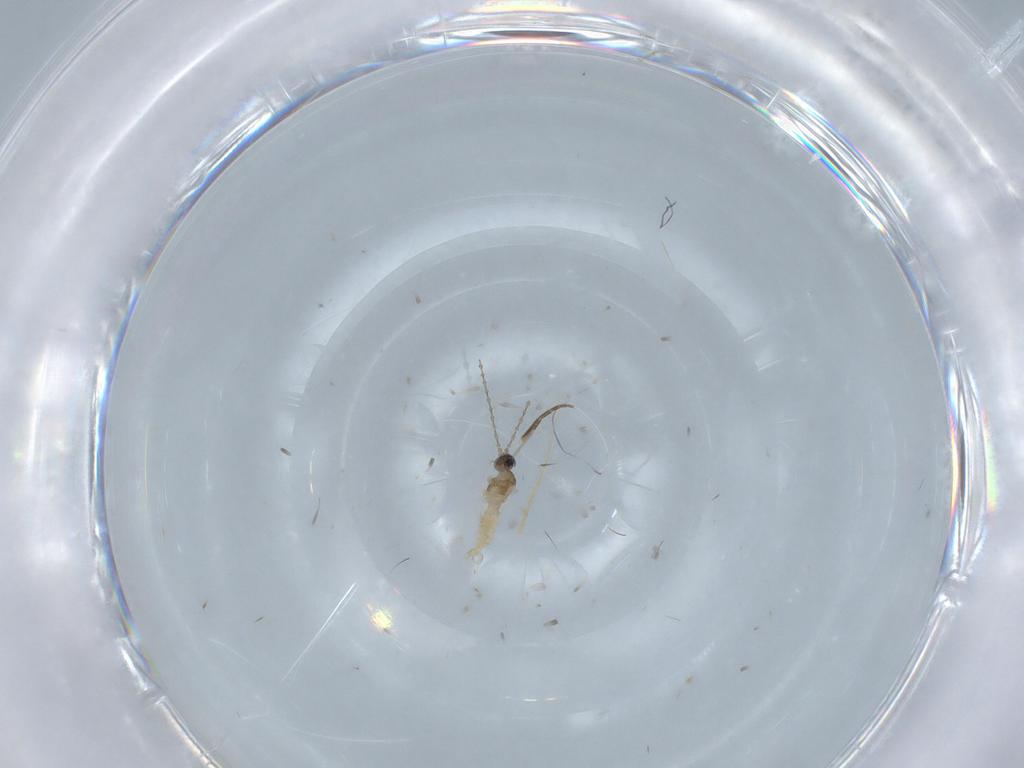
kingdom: Animalia
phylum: Arthropoda
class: Insecta
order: Diptera
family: Cecidomyiidae
